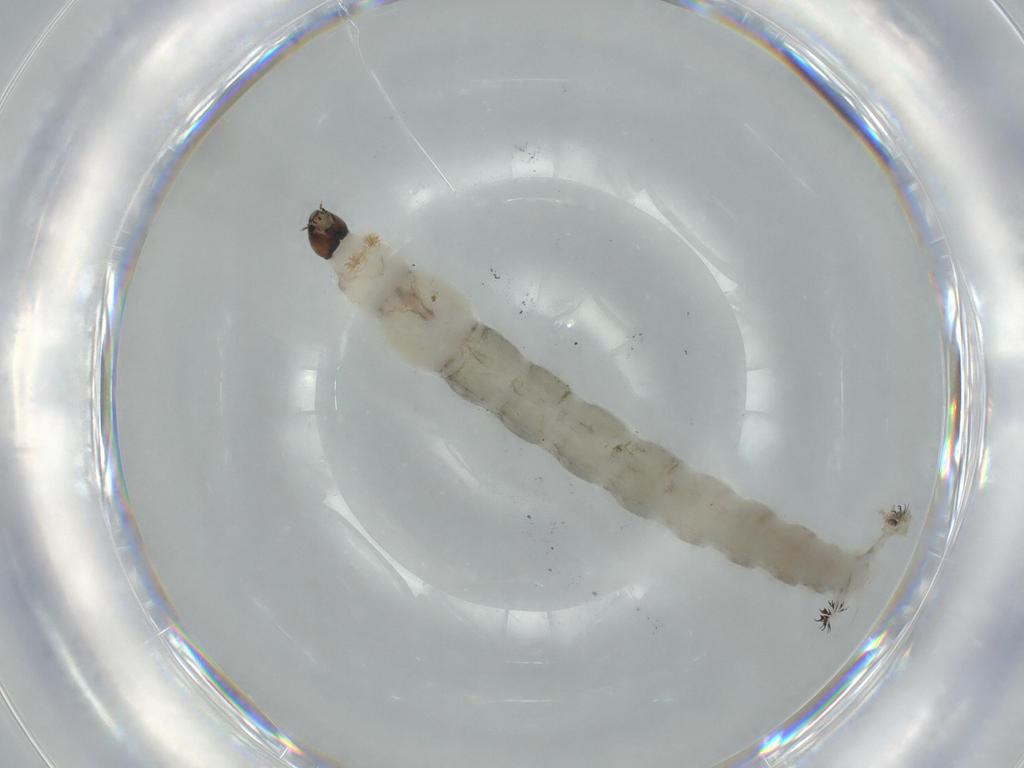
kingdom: Animalia
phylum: Arthropoda
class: Insecta
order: Diptera
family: Chironomidae
